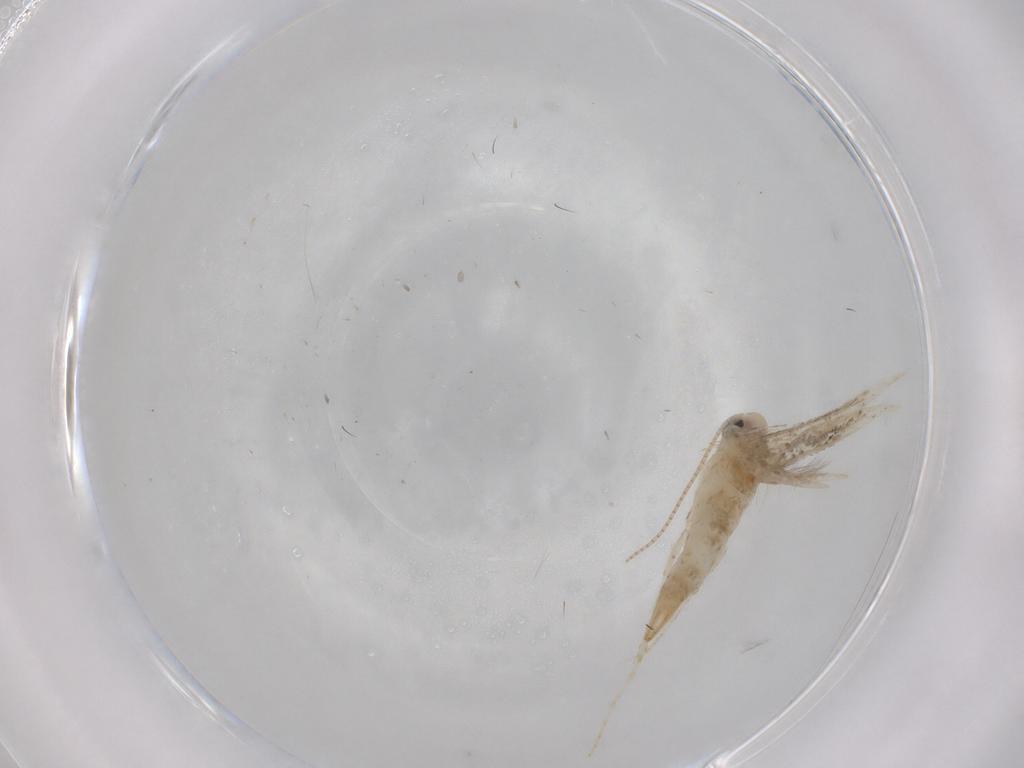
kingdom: Animalia
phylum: Arthropoda
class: Insecta
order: Lepidoptera
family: Gracillariidae
